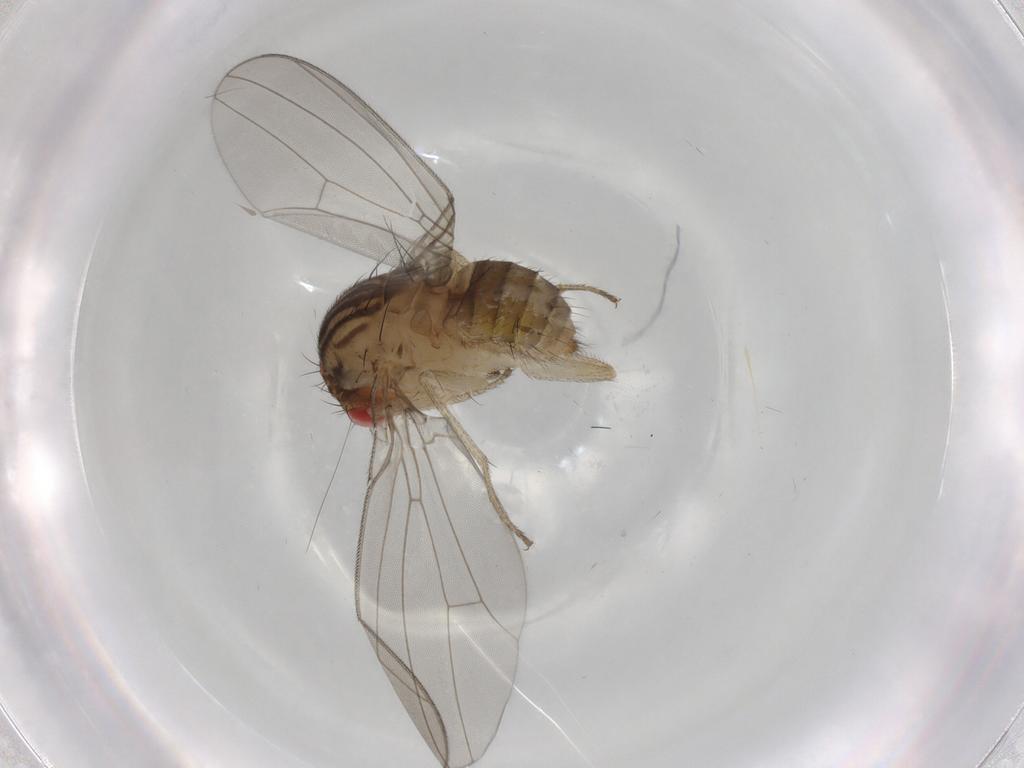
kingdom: Animalia
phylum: Arthropoda
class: Insecta
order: Diptera
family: Drosophilidae
